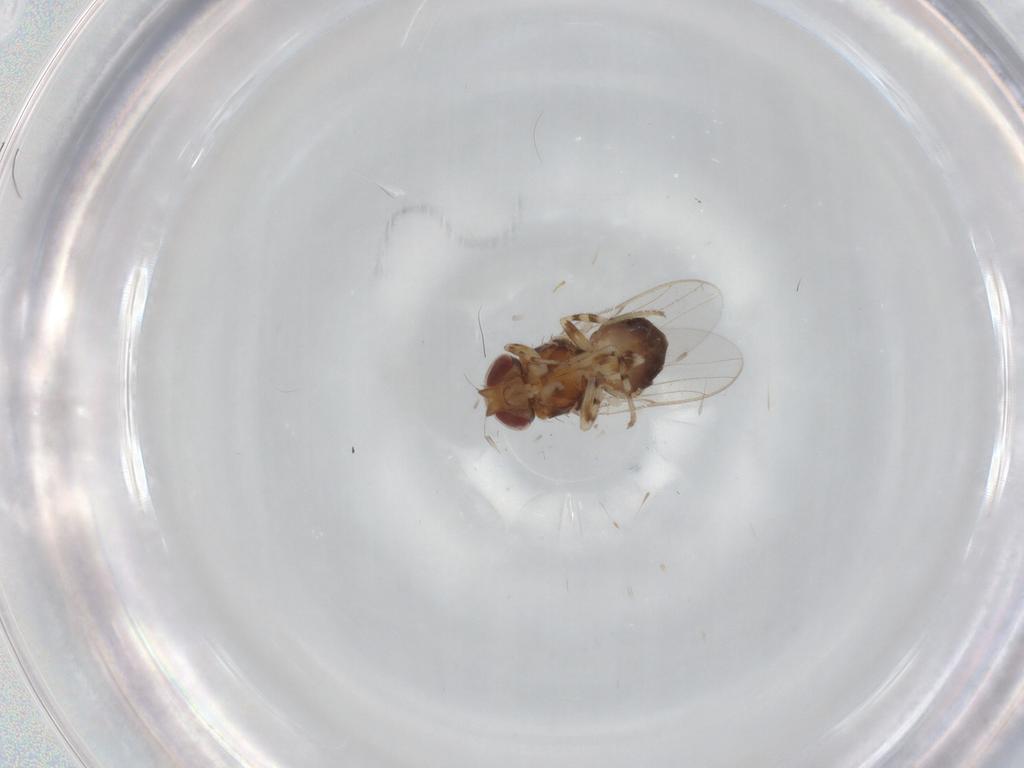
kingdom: Animalia
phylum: Arthropoda
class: Insecta
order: Diptera
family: Chloropidae
